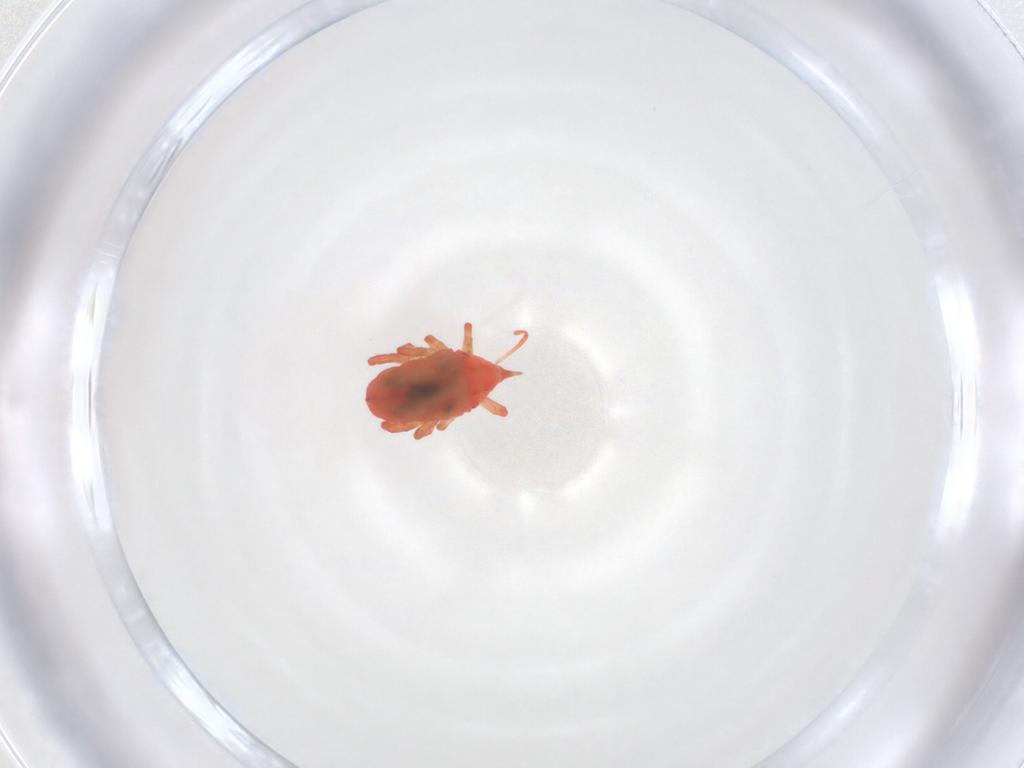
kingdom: Animalia
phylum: Arthropoda
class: Arachnida
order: Trombidiformes
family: Bdellidae
